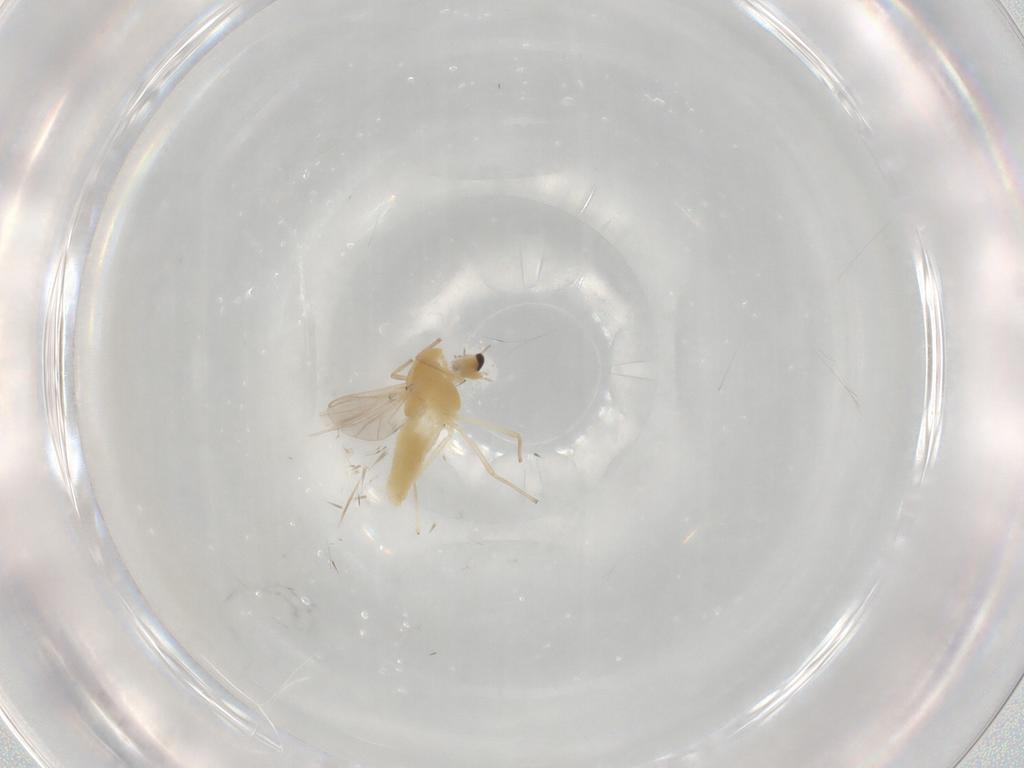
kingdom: Animalia
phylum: Arthropoda
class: Insecta
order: Diptera
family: Chironomidae
